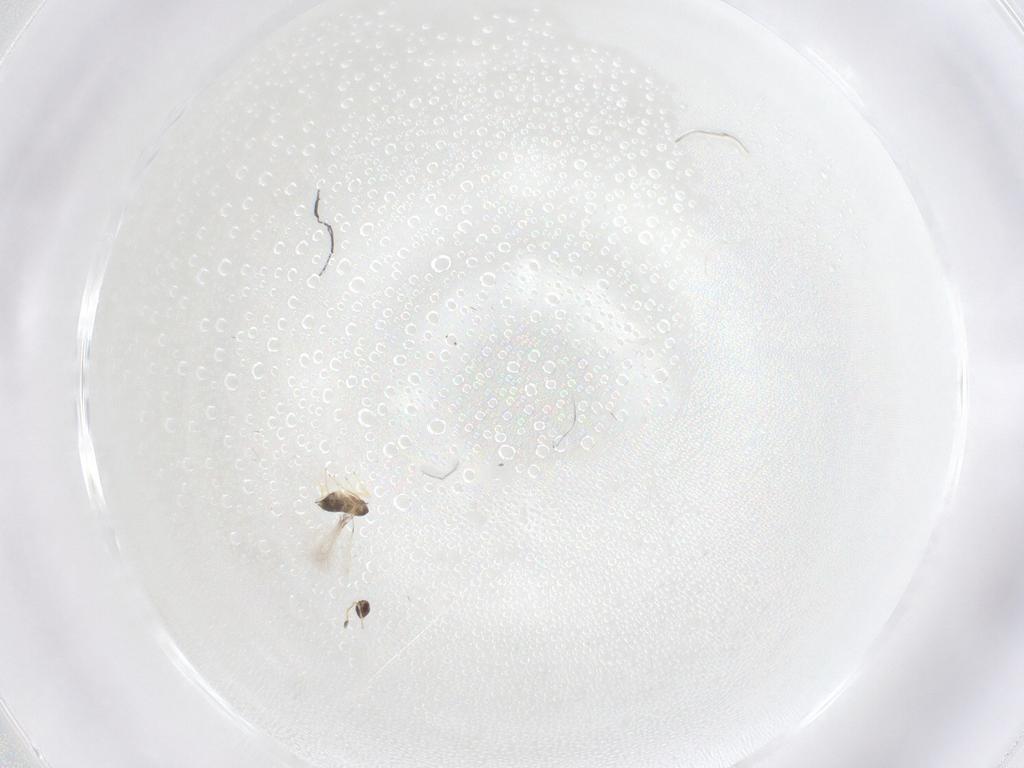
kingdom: Animalia
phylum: Arthropoda
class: Insecta
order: Hymenoptera
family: Mymaridae
